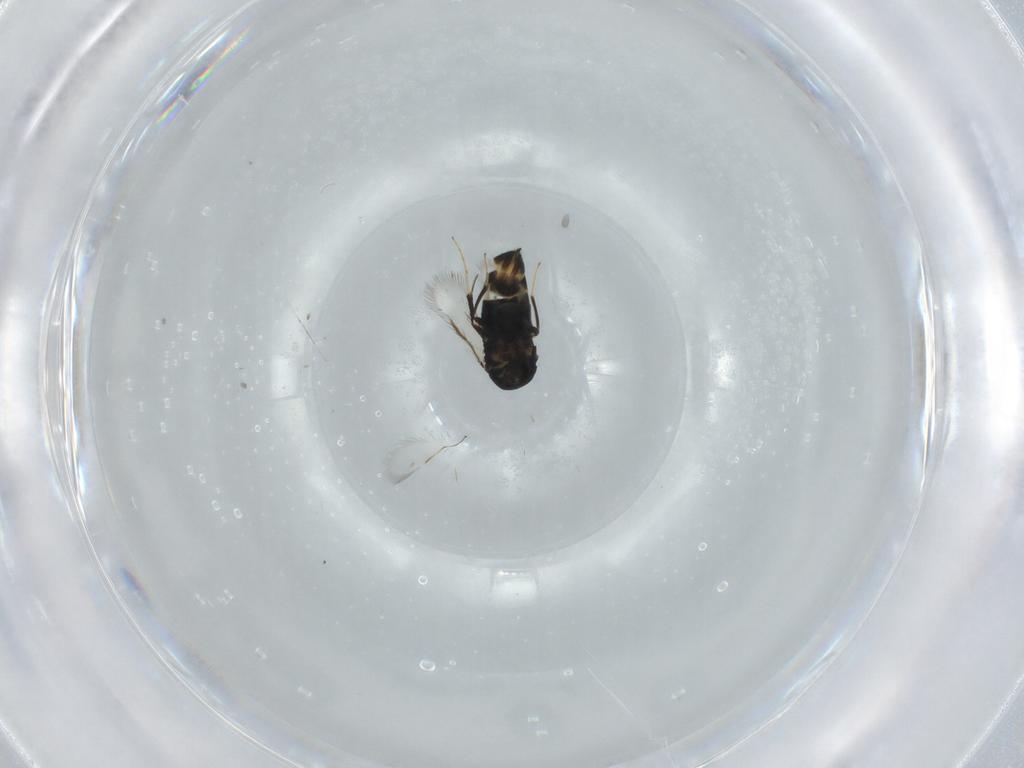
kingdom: Animalia
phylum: Arthropoda
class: Insecta
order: Hymenoptera
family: Signiphoridae
